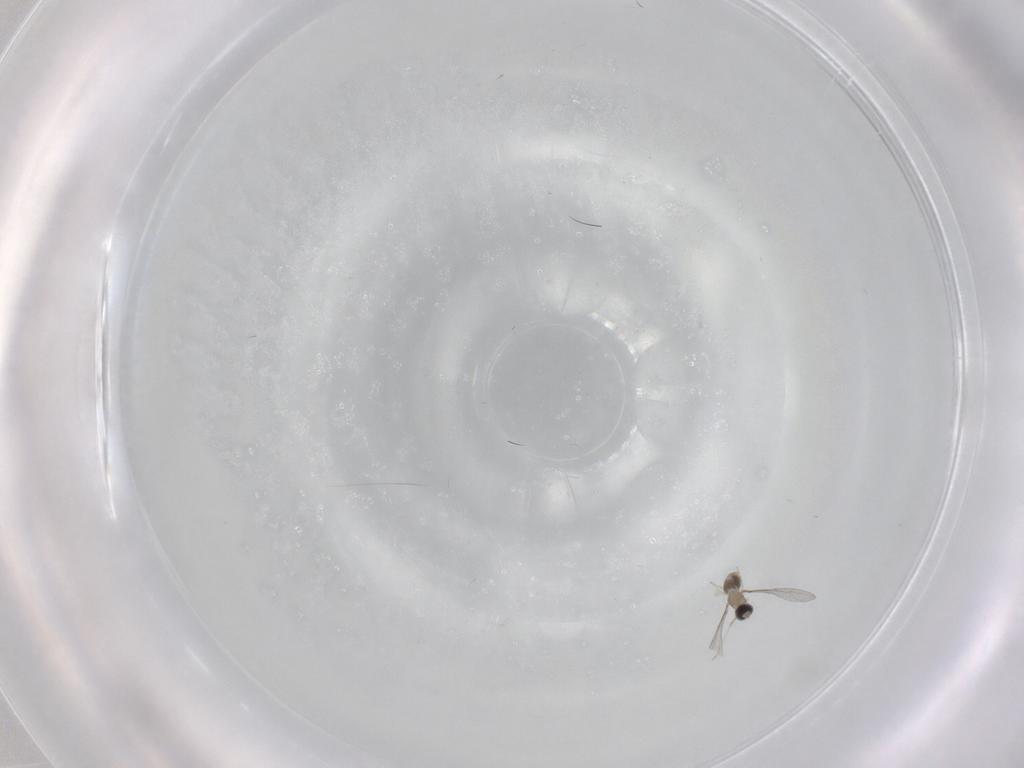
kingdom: Animalia
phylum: Arthropoda
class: Insecta
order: Diptera
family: Cecidomyiidae
